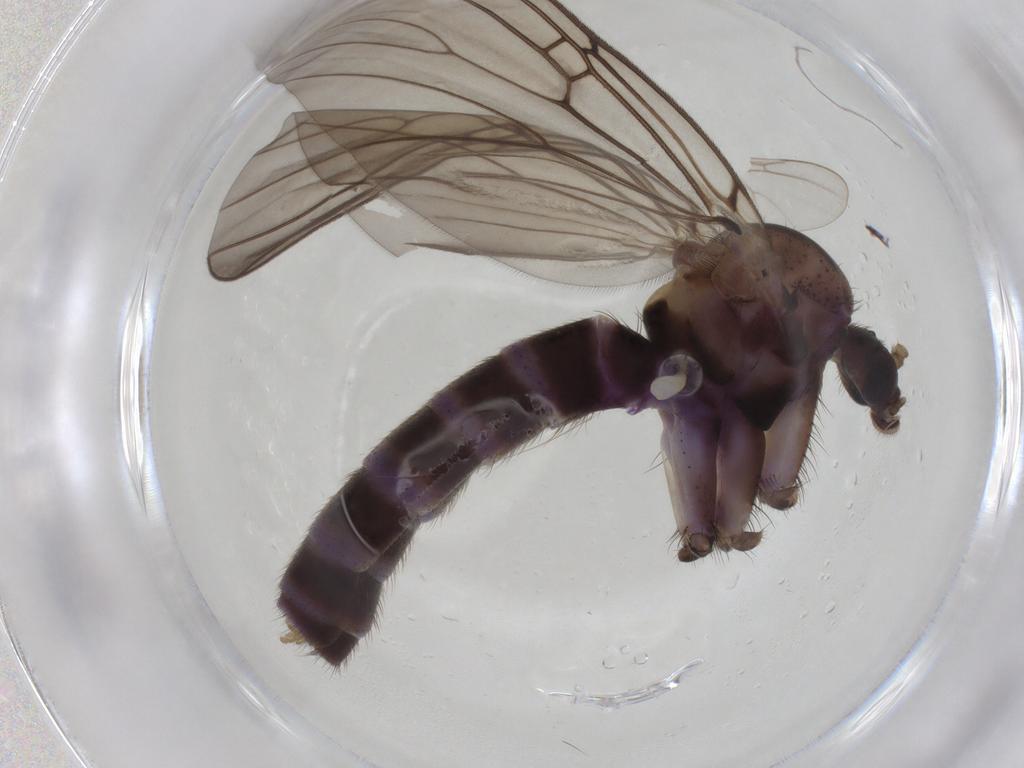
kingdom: Animalia
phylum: Arthropoda
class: Insecta
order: Diptera
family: Mycetophilidae
